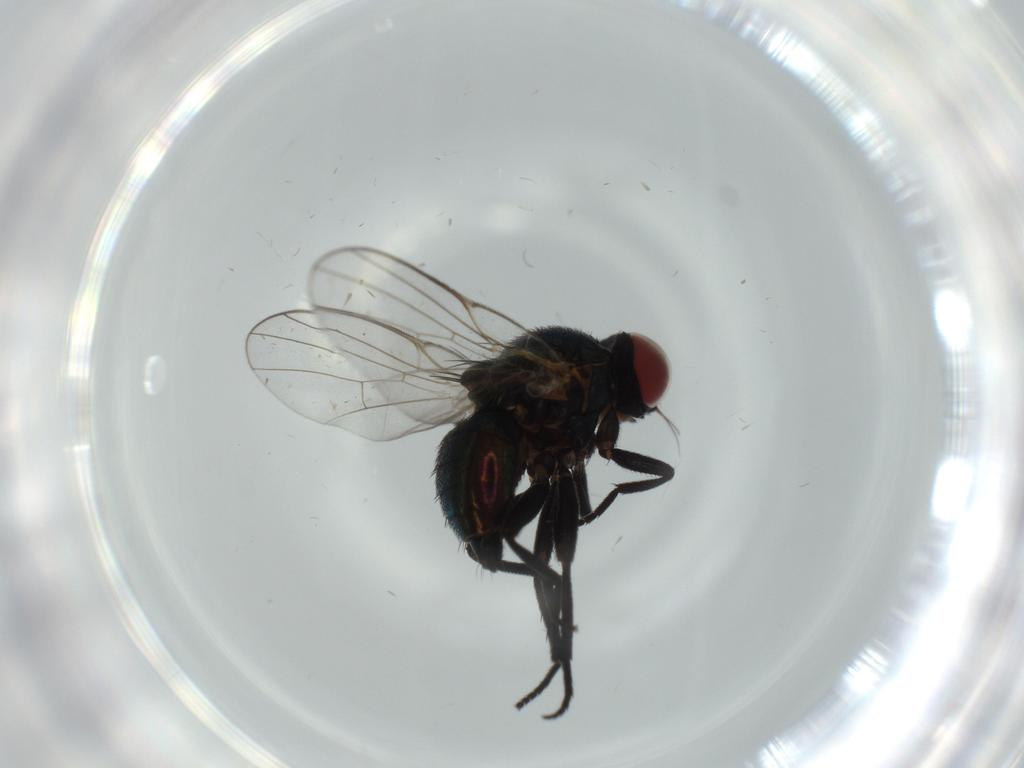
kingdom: Animalia
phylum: Arthropoda
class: Insecta
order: Diptera
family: Agromyzidae
